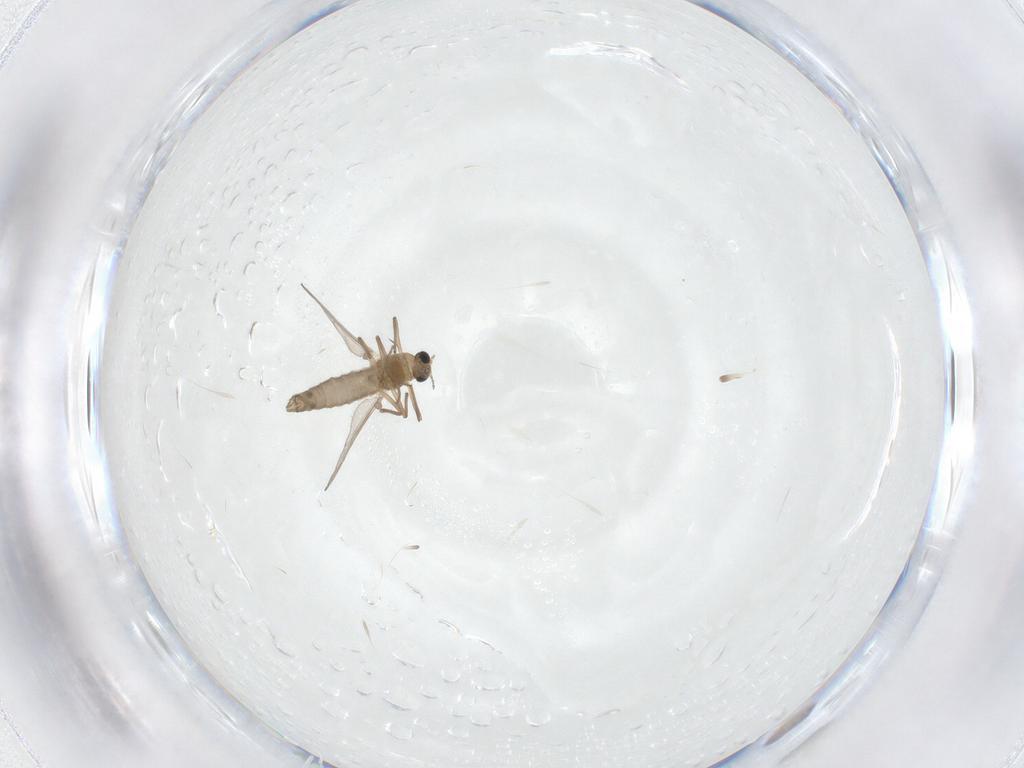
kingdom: Animalia
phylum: Arthropoda
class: Insecta
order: Diptera
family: Chironomidae
